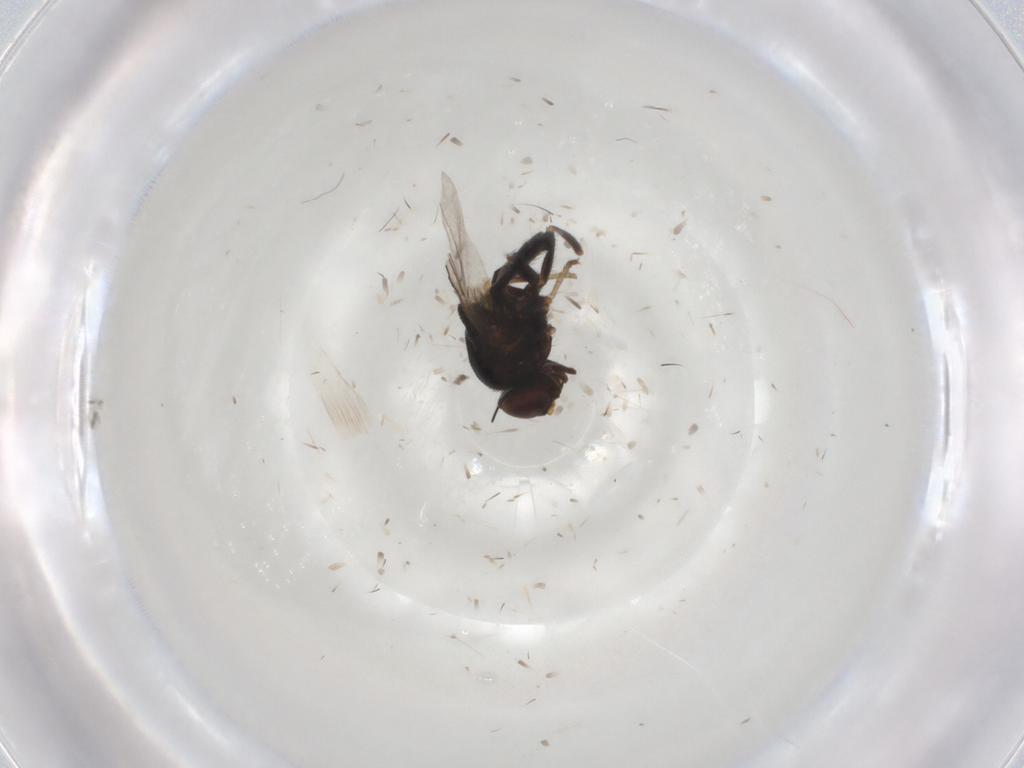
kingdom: Animalia
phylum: Arthropoda
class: Insecta
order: Diptera
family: Chloropidae
